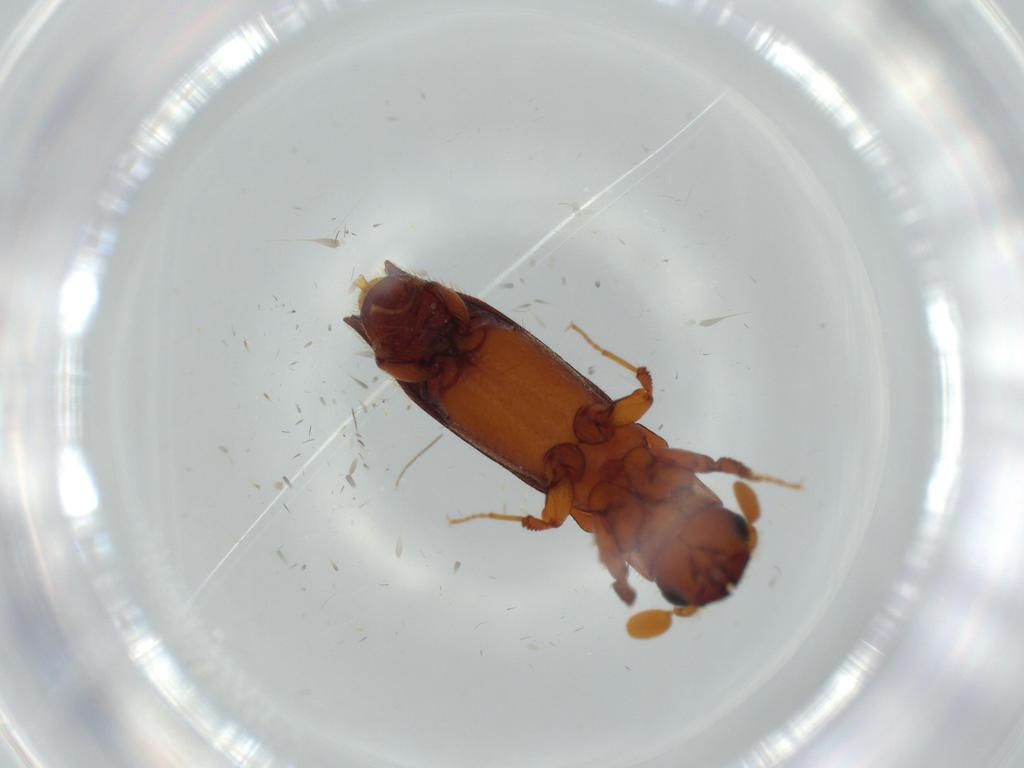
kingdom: Animalia
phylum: Arthropoda
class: Insecta
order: Coleoptera
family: Curculionidae
